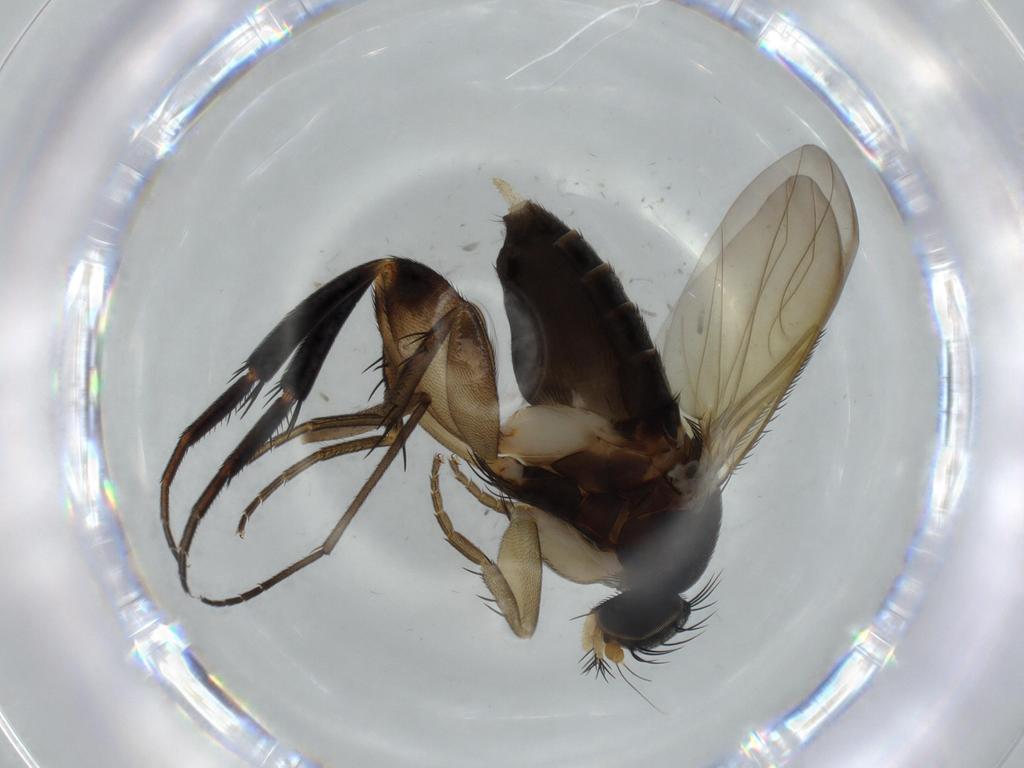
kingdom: Animalia
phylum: Arthropoda
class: Insecta
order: Diptera
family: Phoridae
